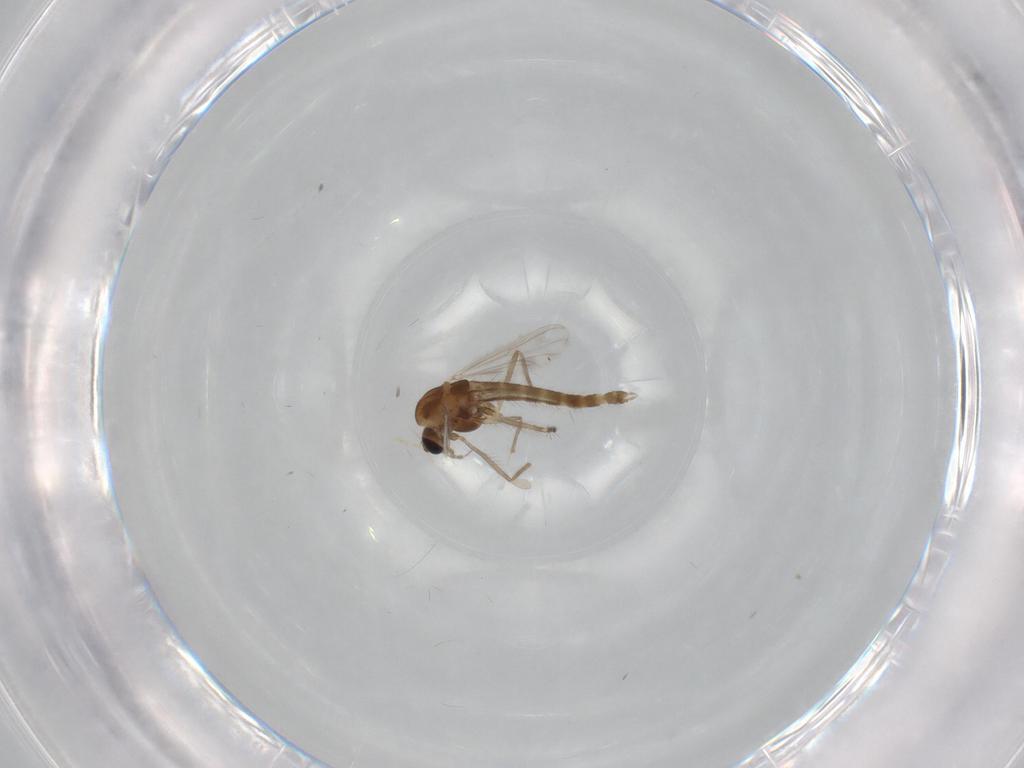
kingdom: Animalia
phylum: Arthropoda
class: Insecta
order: Diptera
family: Chironomidae
